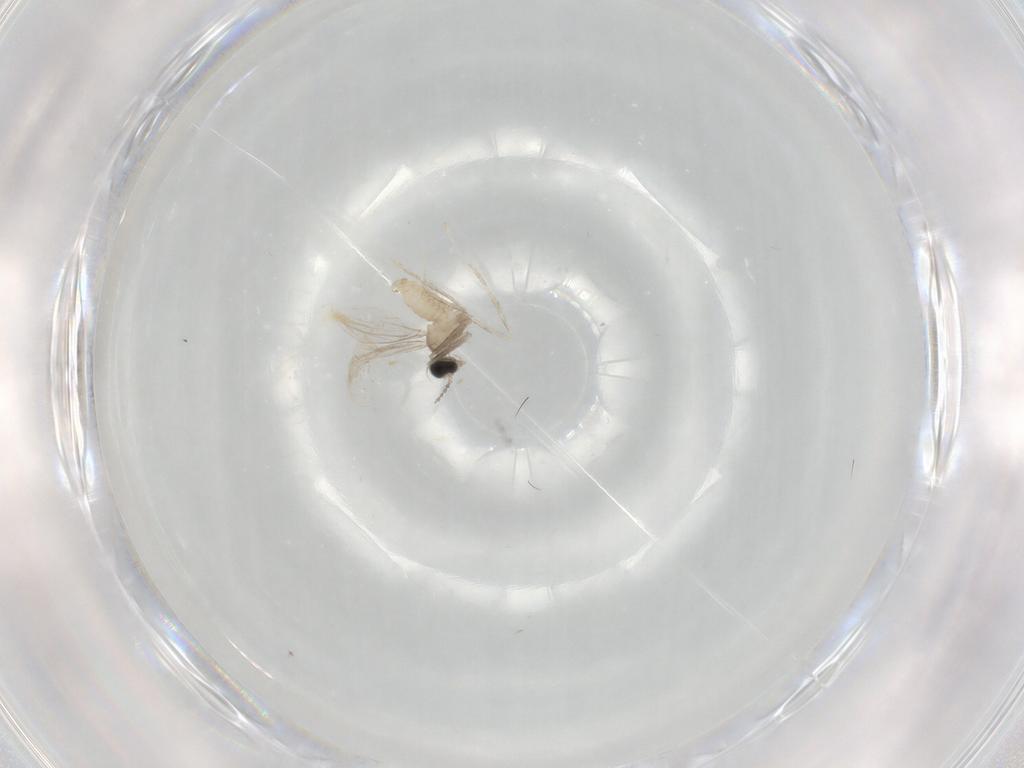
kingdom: Animalia
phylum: Arthropoda
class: Insecta
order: Diptera
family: Cecidomyiidae
